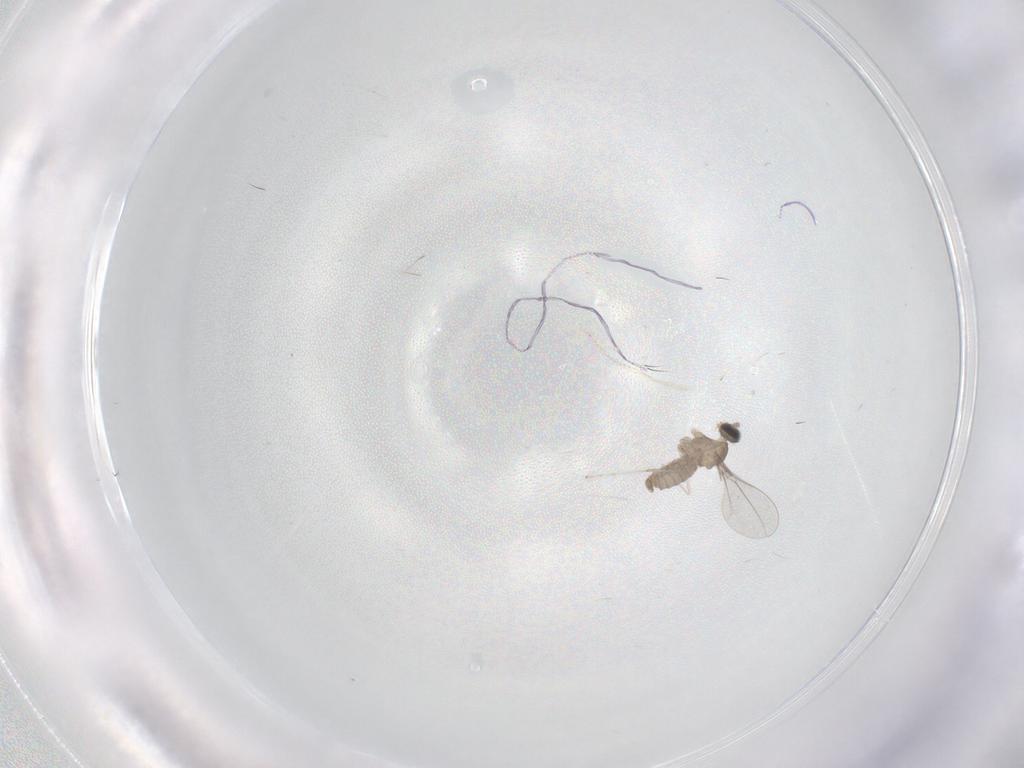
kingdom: Animalia
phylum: Arthropoda
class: Insecta
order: Diptera
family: Cecidomyiidae
